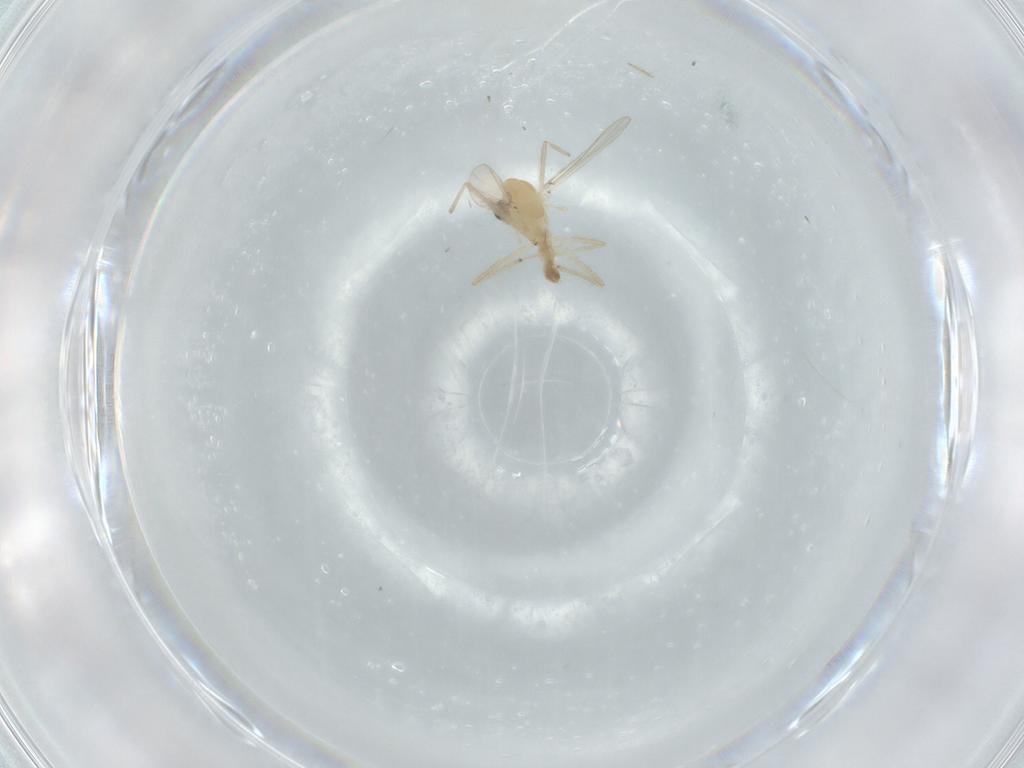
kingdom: Animalia
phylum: Arthropoda
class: Insecta
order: Diptera
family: Chironomidae
